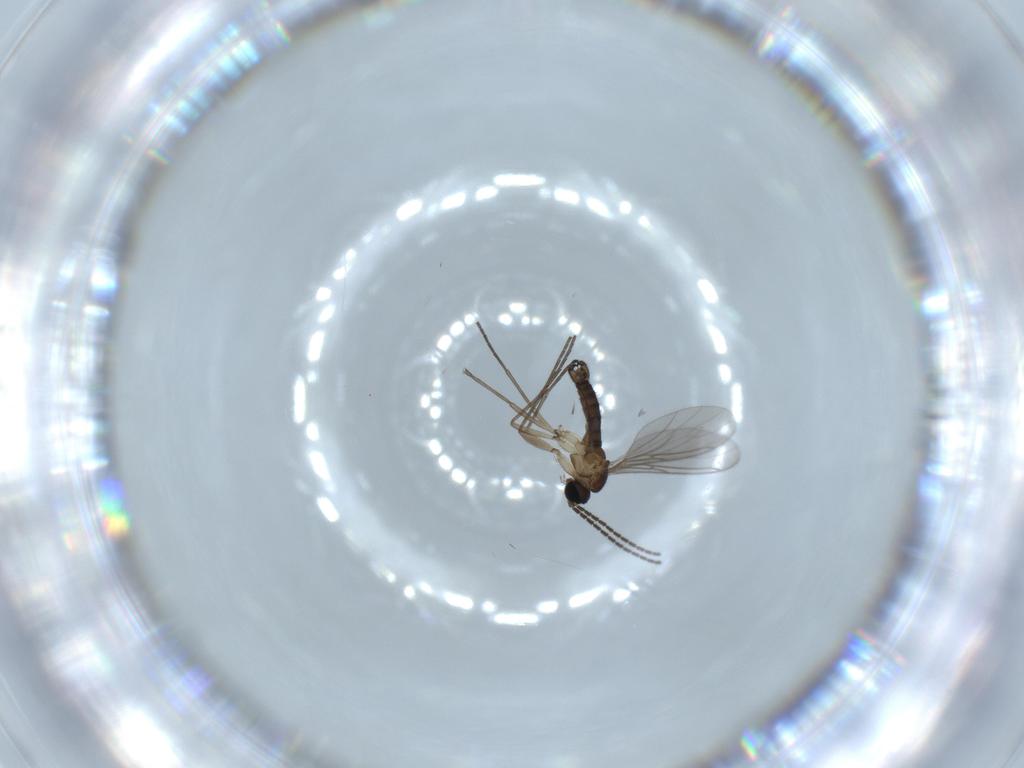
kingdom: Animalia
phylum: Arthropoda
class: Insecta
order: Diptera
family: Sciaridae
